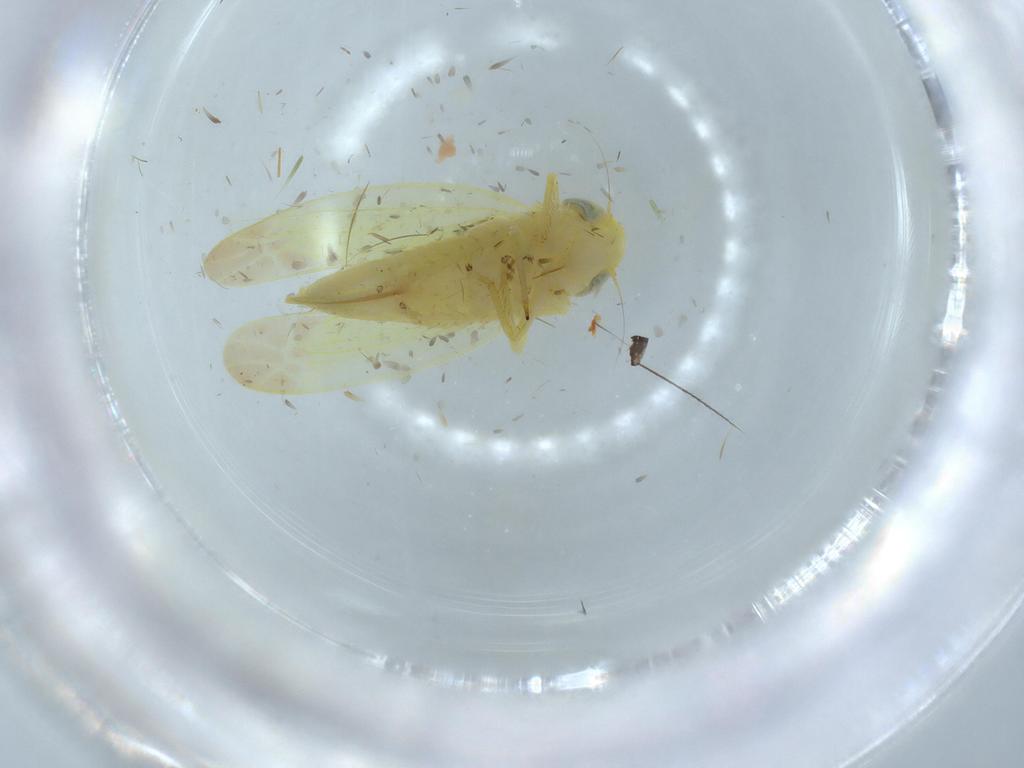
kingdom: Animalia
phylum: Arthropoda
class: Insecta
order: Hemiptera
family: Cicadellidae
